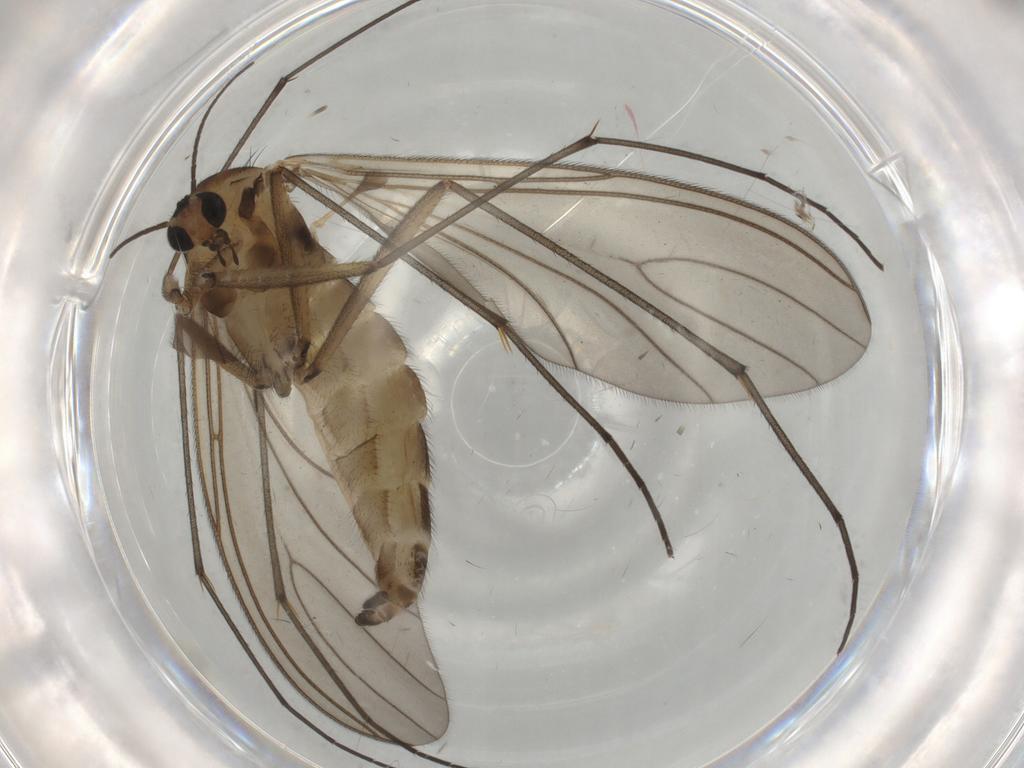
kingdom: Animalia
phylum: Arthropoda
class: Insecta
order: Diptera
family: Sciaridae
